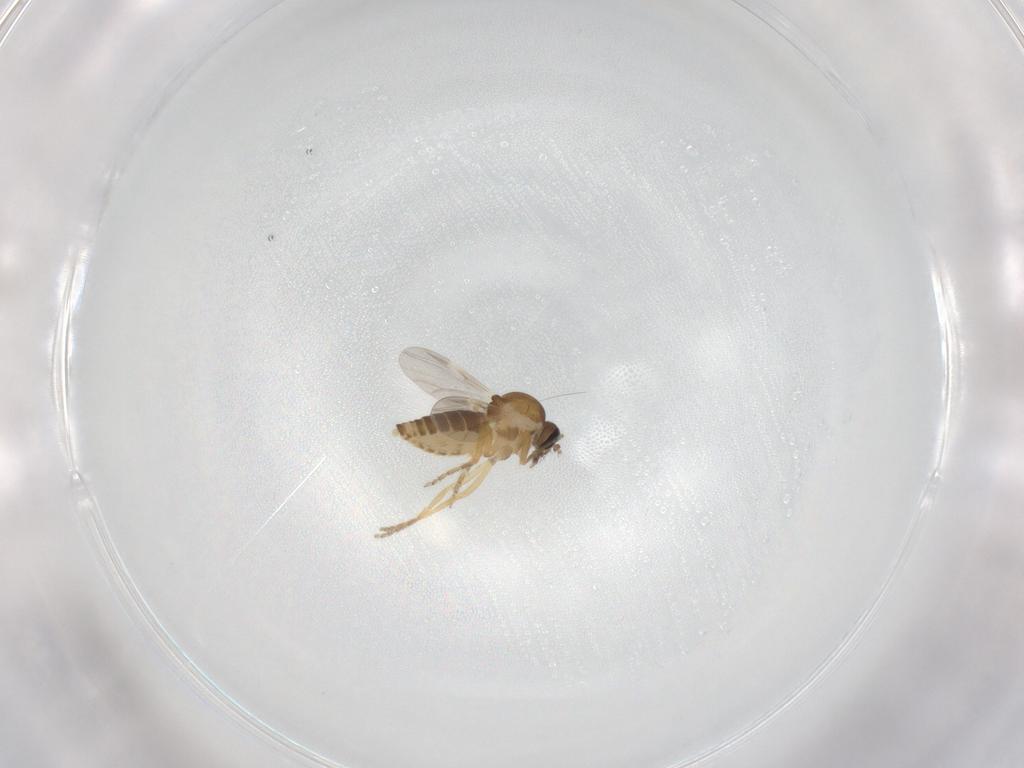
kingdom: Animalia
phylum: Arthropoda
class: Insecta
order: Diptera
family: Ceratopogonidae
